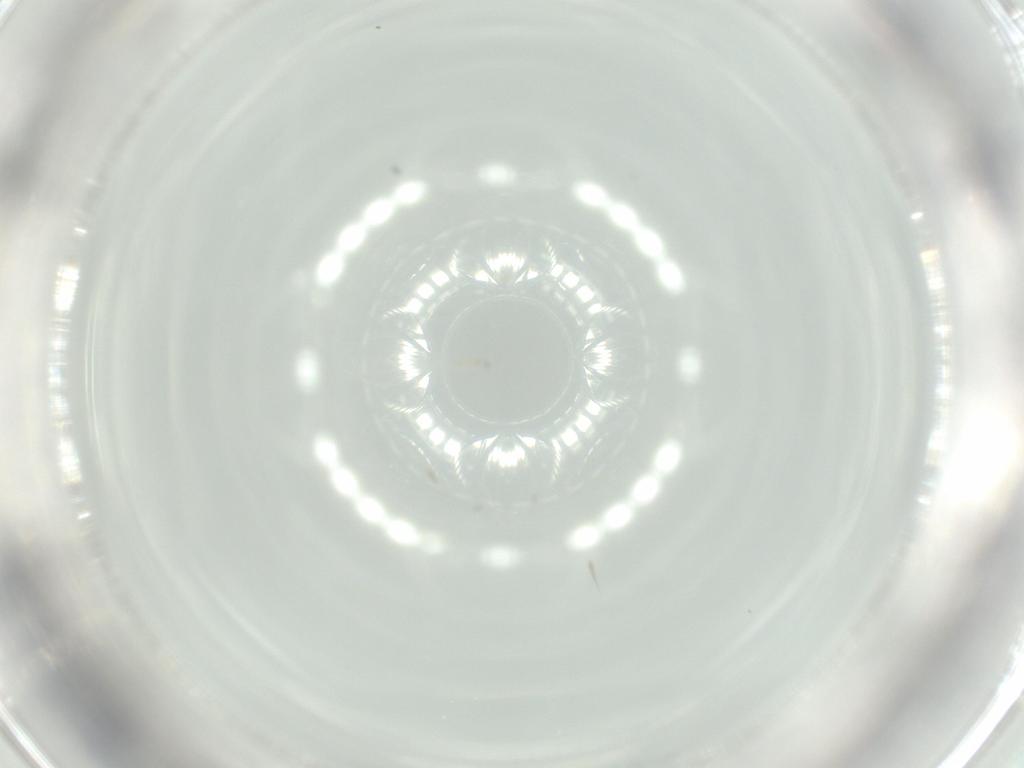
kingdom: Animalia
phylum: Arthropoda
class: Insecta
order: Diptera
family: Cecidomyiidae
